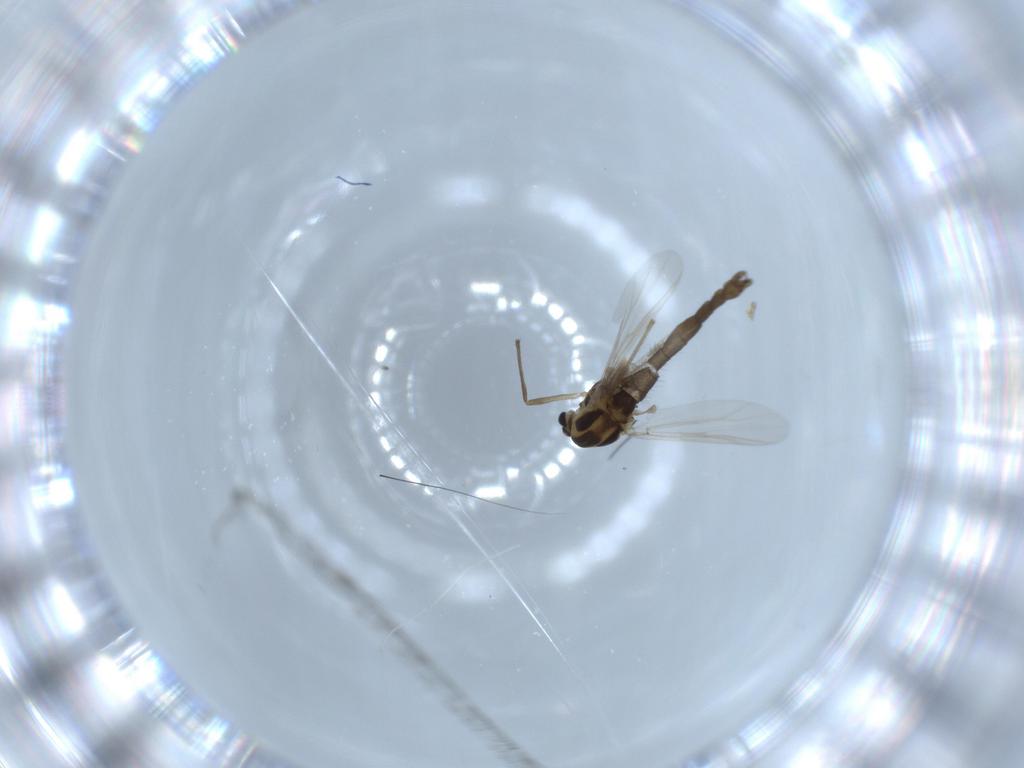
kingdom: Animalia
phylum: Arthropoda
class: Insecta
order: Diptera
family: Chironomidae
